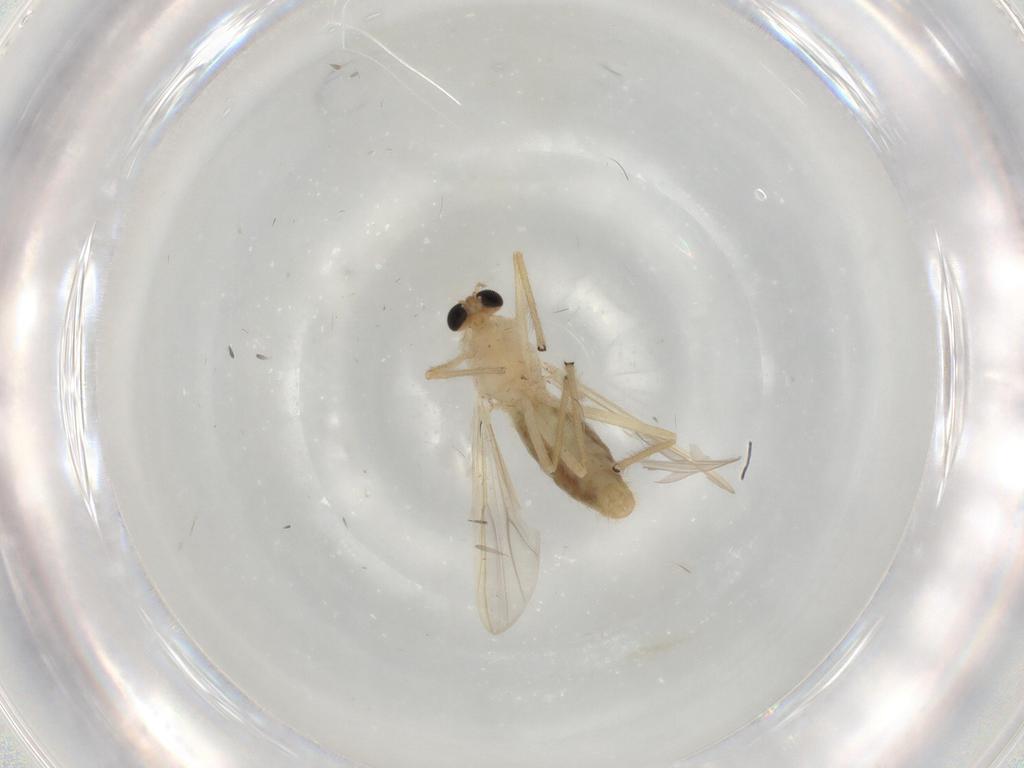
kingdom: Animalia
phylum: Arthropoda
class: Insecta
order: Diptera
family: Chironomidae
